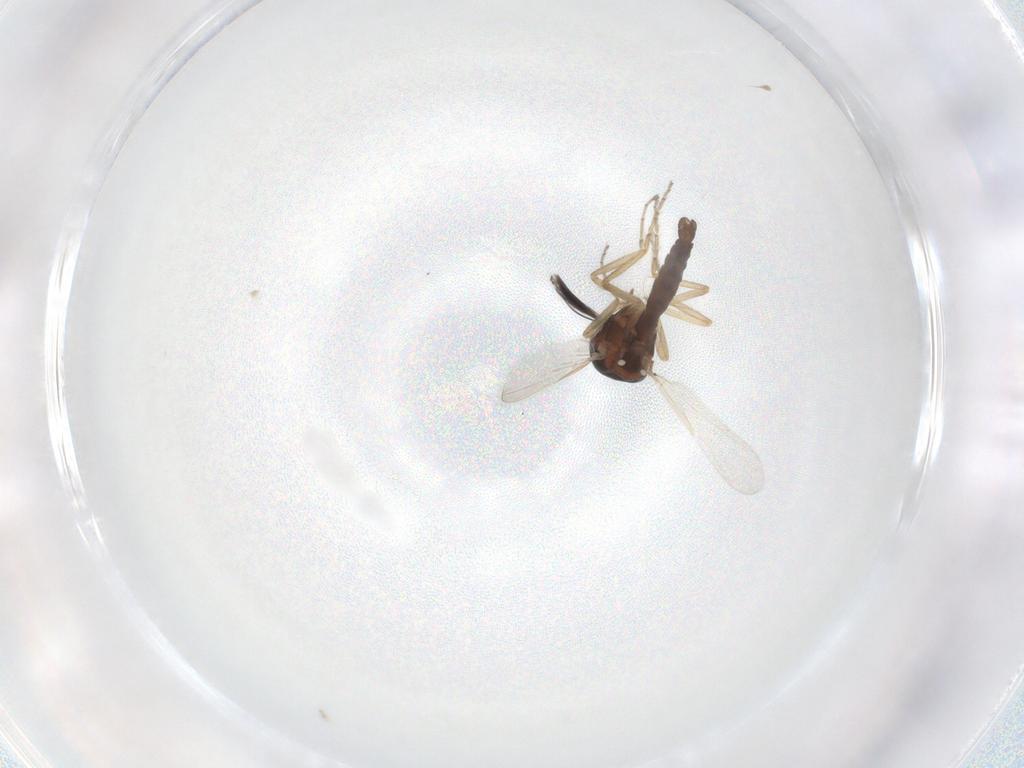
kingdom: Animalia
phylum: Arthropoda
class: Insecta
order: Diptera
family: Ceratopogonidae
